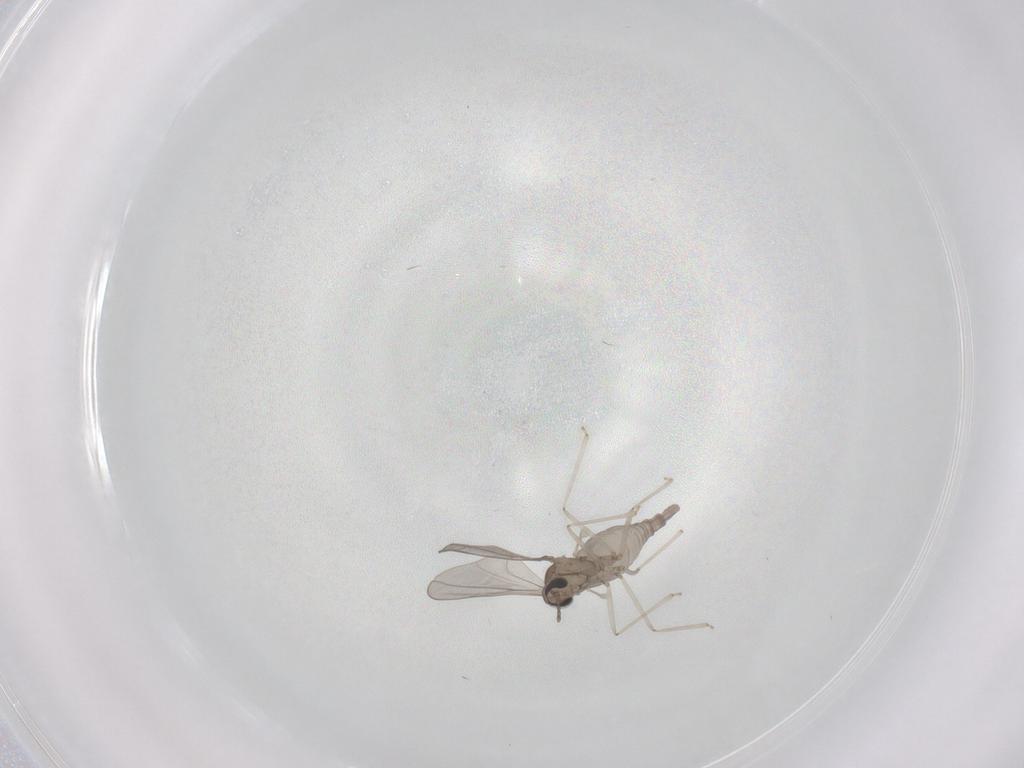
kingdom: Animalia
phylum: Arthropoda
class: Insecta
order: Diptera
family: Cecidomyiidae
